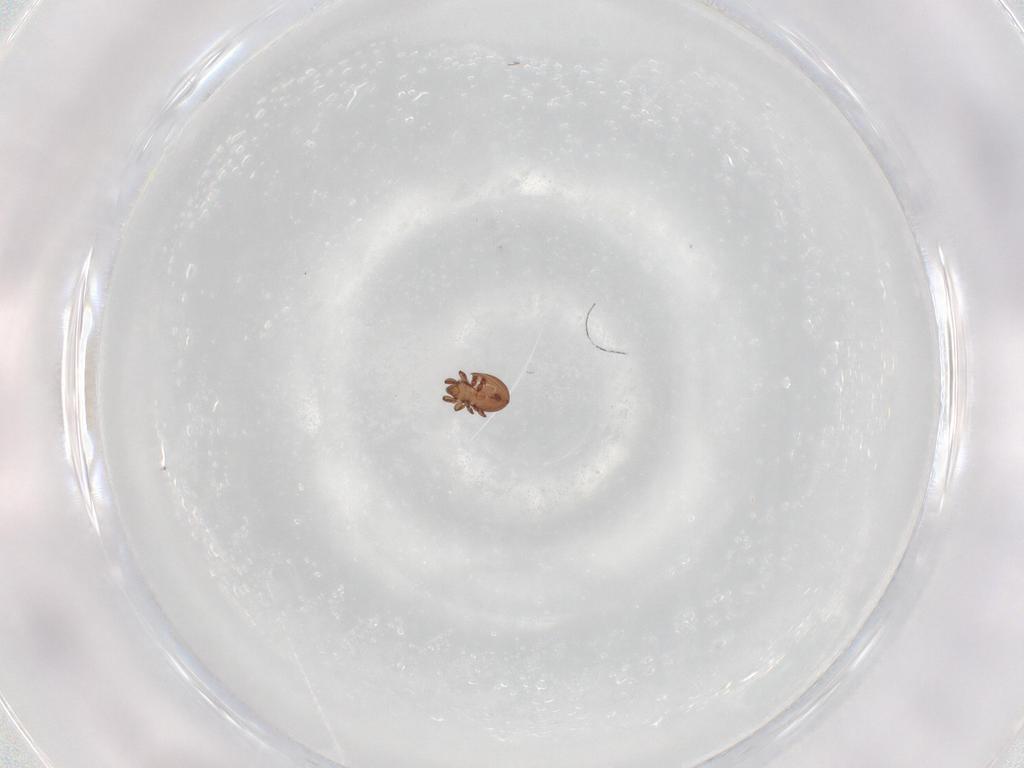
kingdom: Animalia
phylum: Arthropoda
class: Arachnida
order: Sarcoptiformes
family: Eremaeidae
